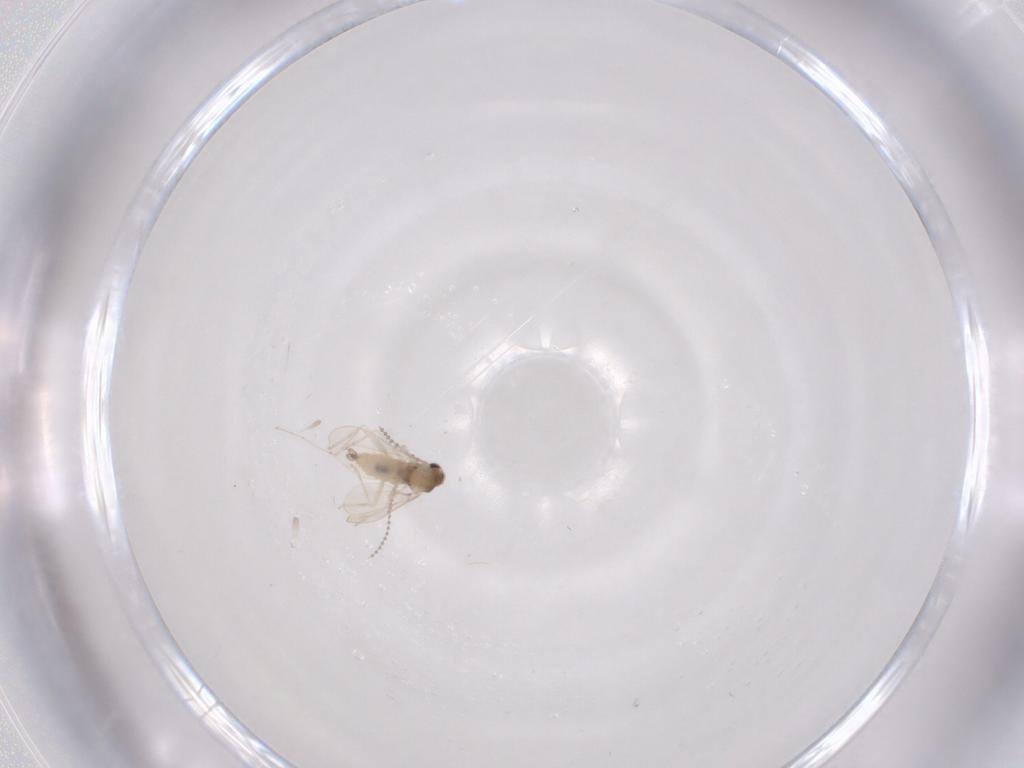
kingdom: Animalia
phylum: Arthropoda
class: Insecta
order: Diptera
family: Cecidomyiidae
